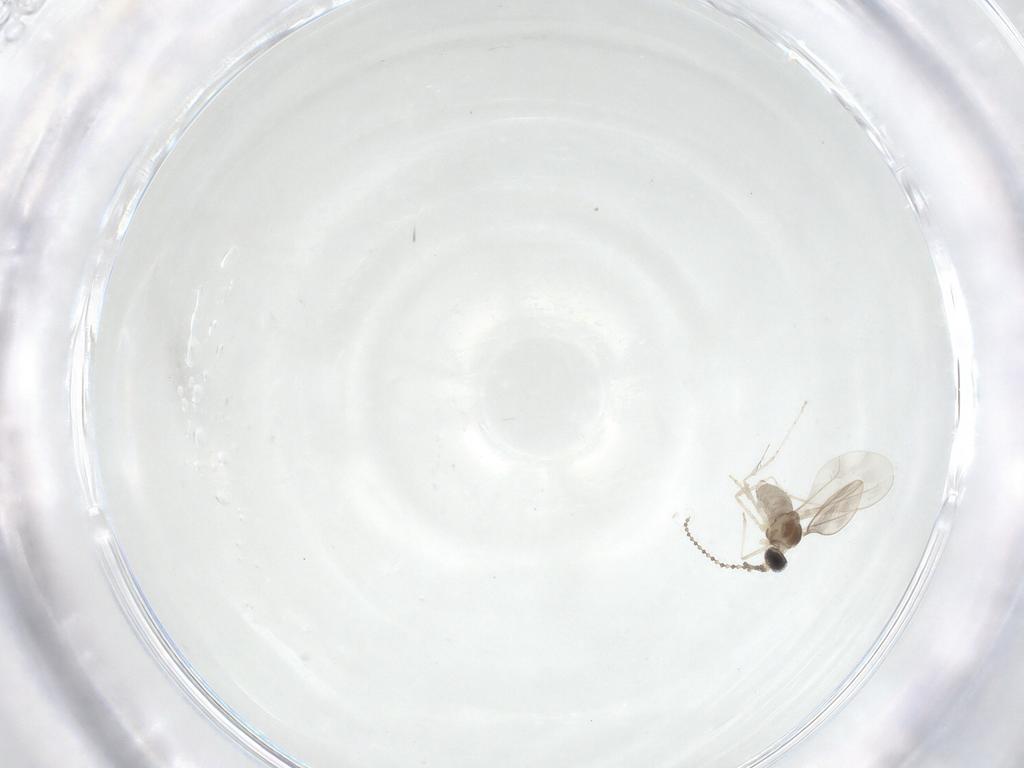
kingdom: Animalia
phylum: Arthropoda
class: Insecta
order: Diptera
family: Cecidomyiidae
